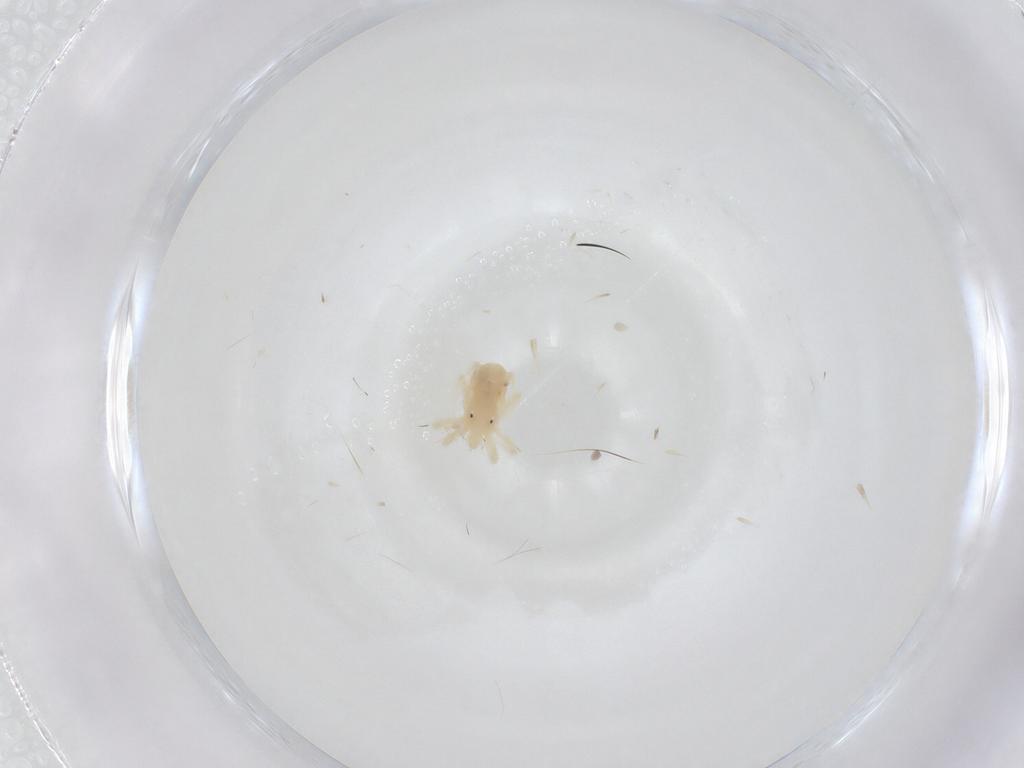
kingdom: Animalia
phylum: Arthropoda
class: Arachnida
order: Trombidiformes
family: Anystidae
